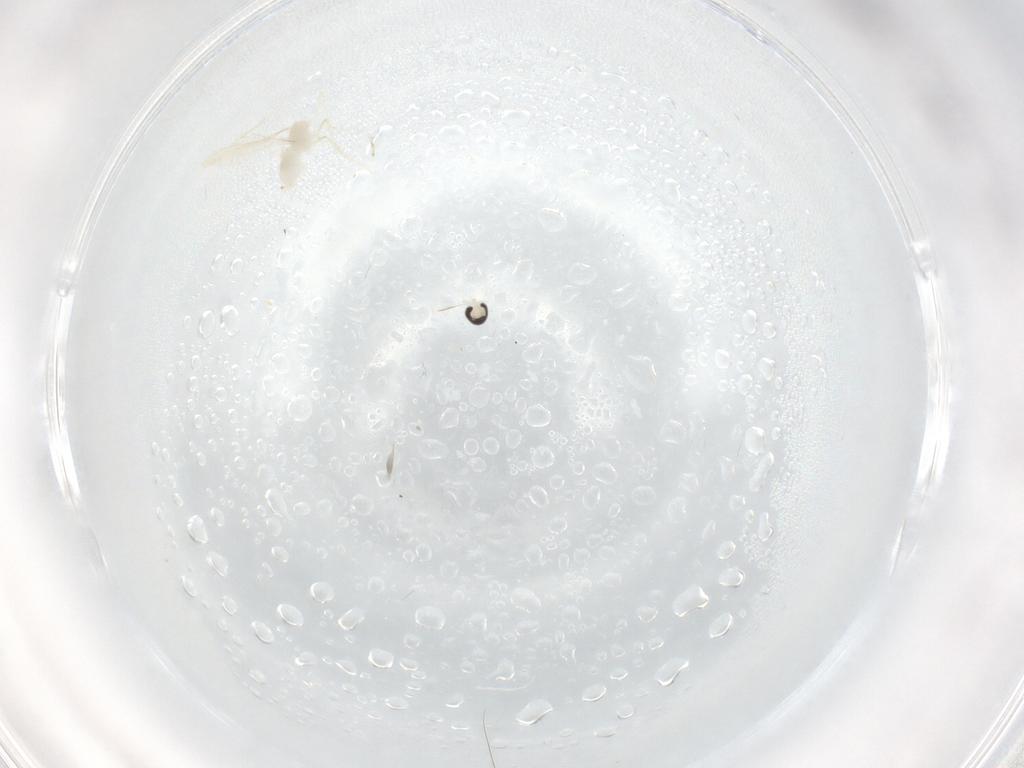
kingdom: Animalia
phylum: Arthropoda
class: Insecta
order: Diptera
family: Cecidomyiidae
